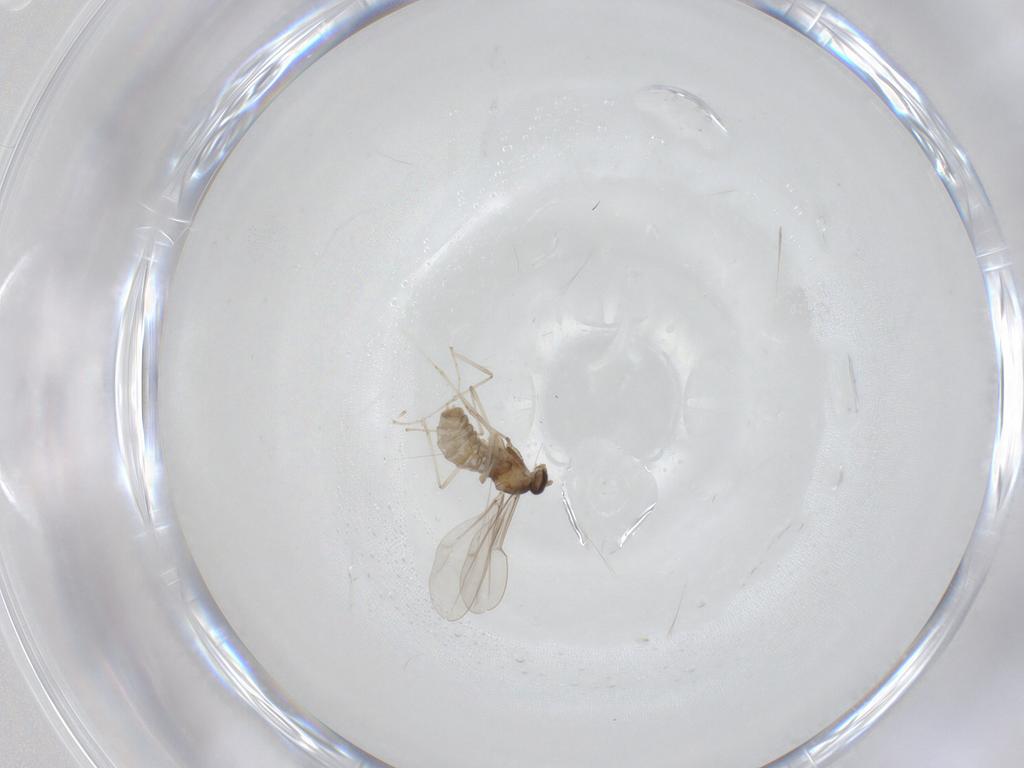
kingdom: Animalia
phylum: Arthropoda
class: Insecta
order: Diptera
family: Cecidomyiidae
